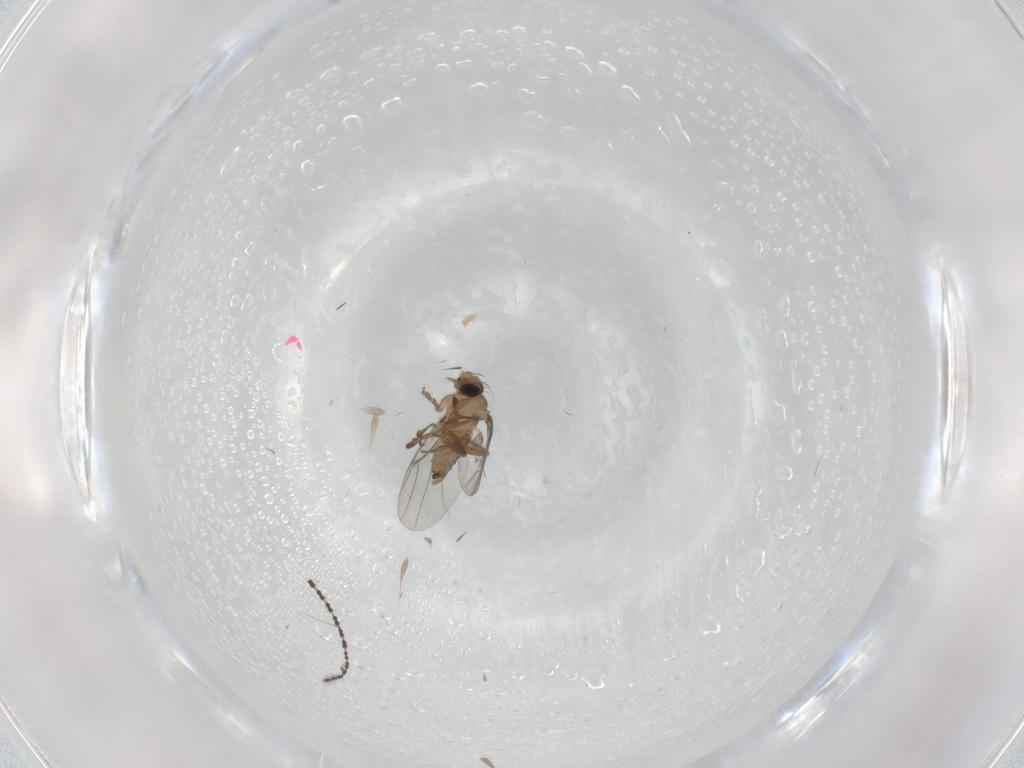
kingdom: Animalia
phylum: Arthropoda
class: Insecta
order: Diptera
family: Sciaridae
